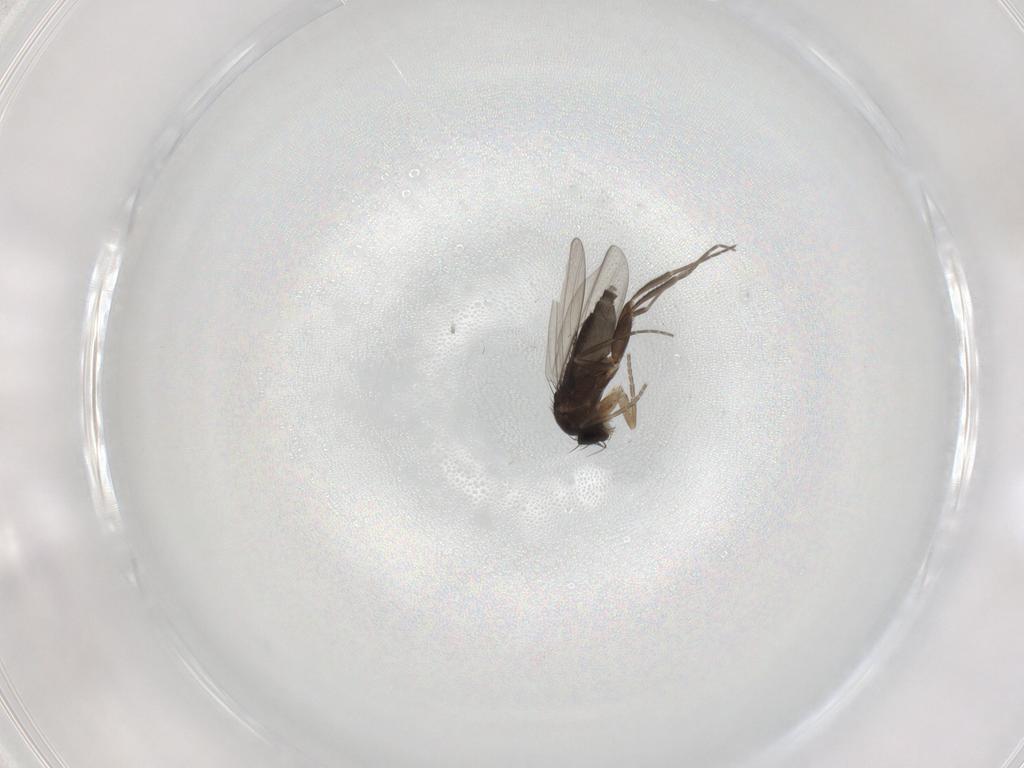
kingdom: Animalia
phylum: Arthropoda
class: Insecta
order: Diptera
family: Phoridae
